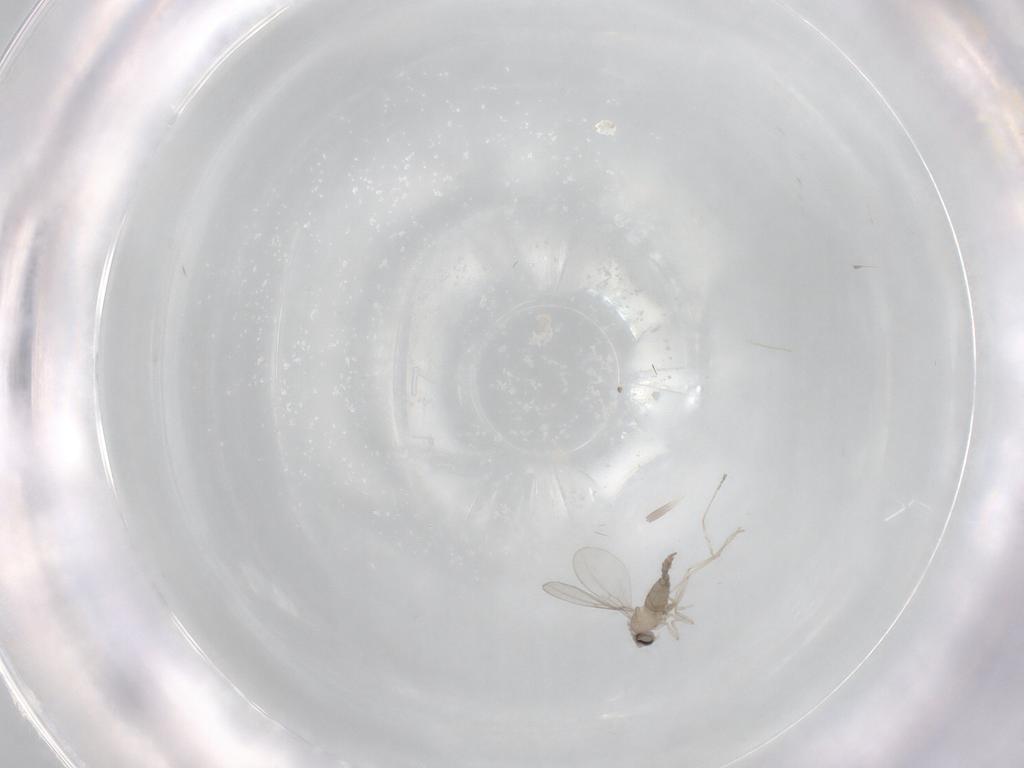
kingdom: Animalia
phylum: Arthropoda
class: Insecta
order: Diptera
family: Cecidomyiidae
